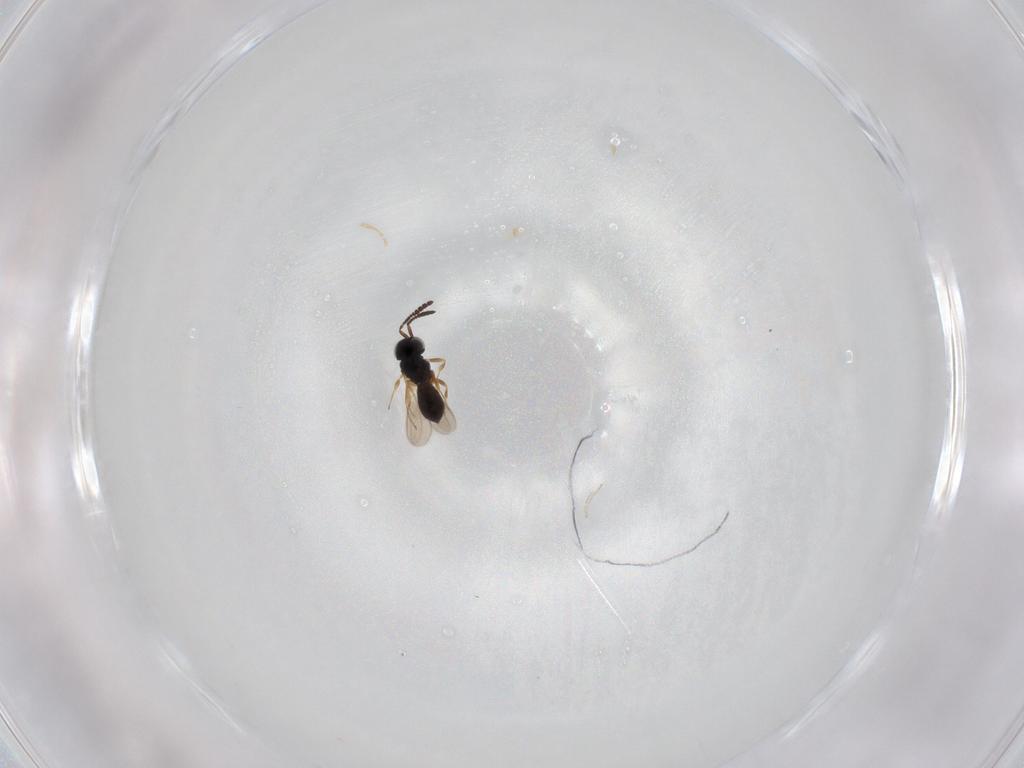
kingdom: Animalia
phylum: Arthropoda
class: Insecta
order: Hymenoptera
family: Scelionidae
